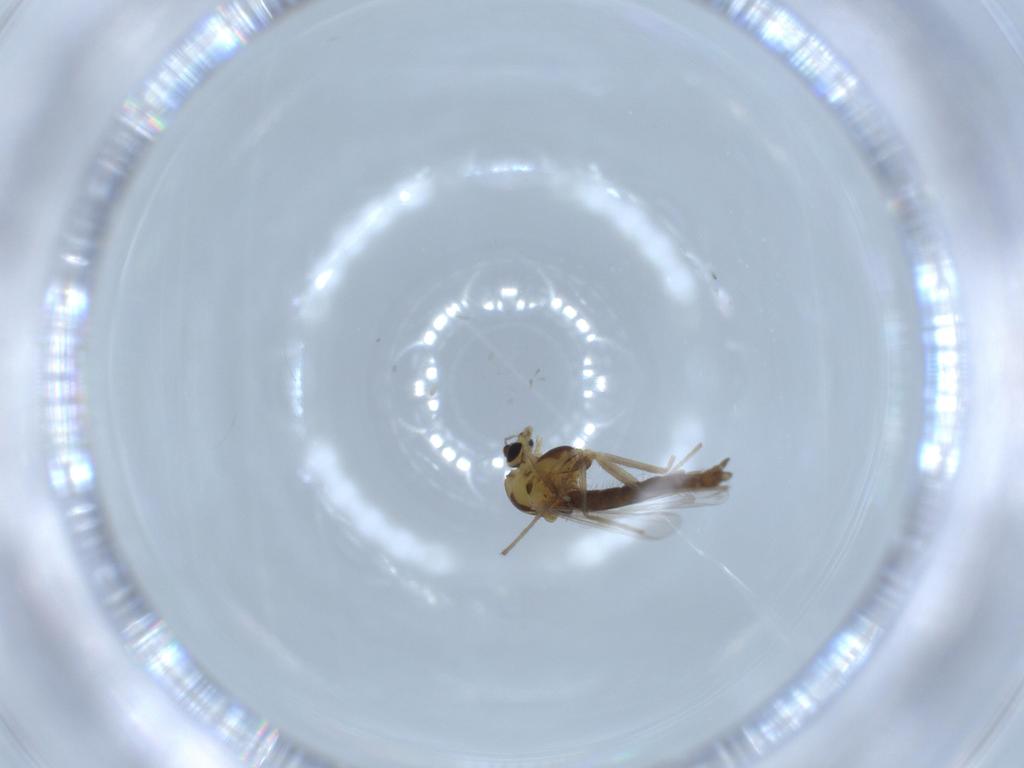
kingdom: Animalia
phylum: Arthropoda
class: Insecta
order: Diptera
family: Chironomidae
